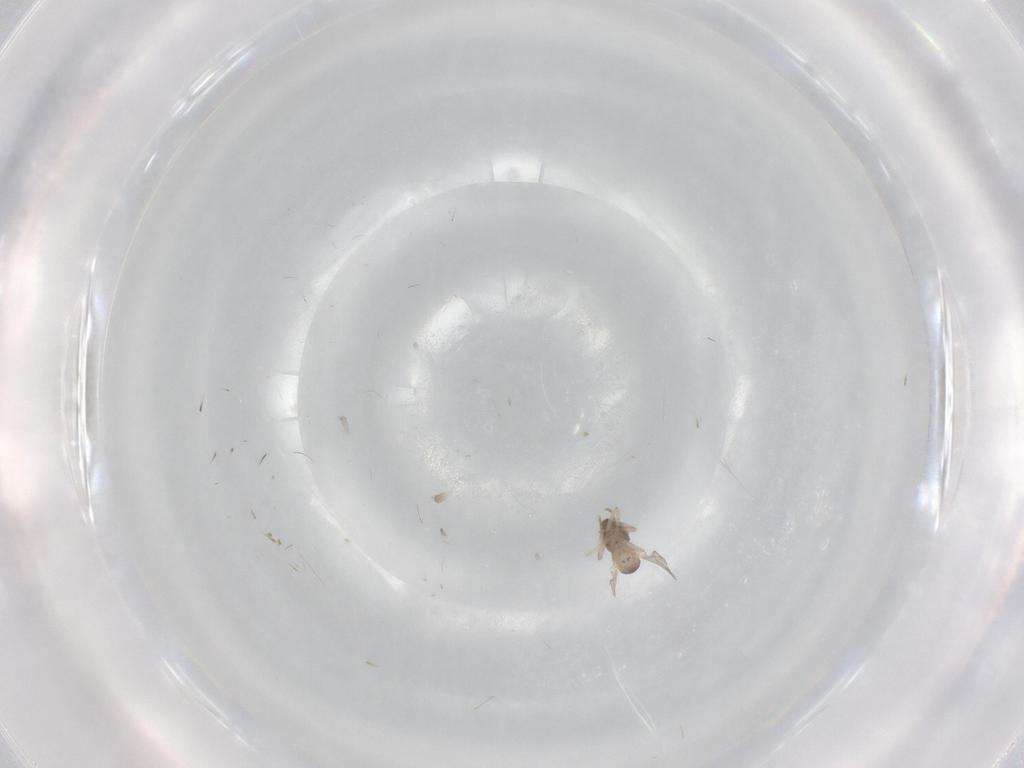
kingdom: Animalia
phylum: Arthropoda
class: Insecta
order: Diptera
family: Cecidomyiidae
